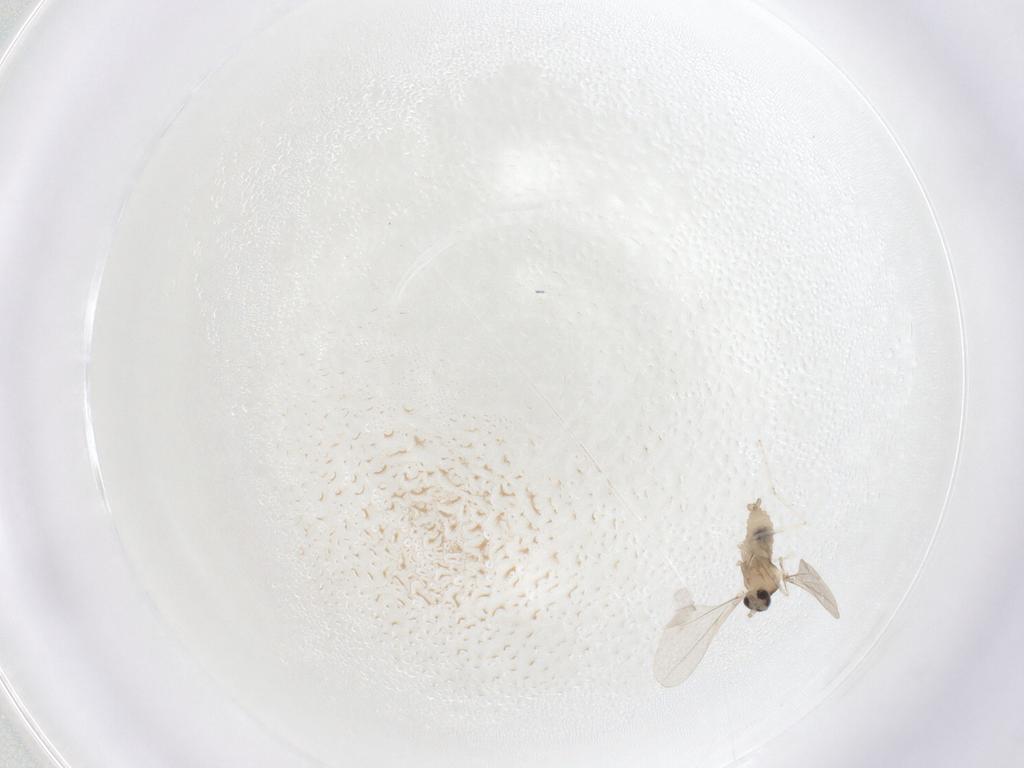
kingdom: Animalia
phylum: Arthropoda
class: Insecta
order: Diptera
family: Cecidomyiidae
